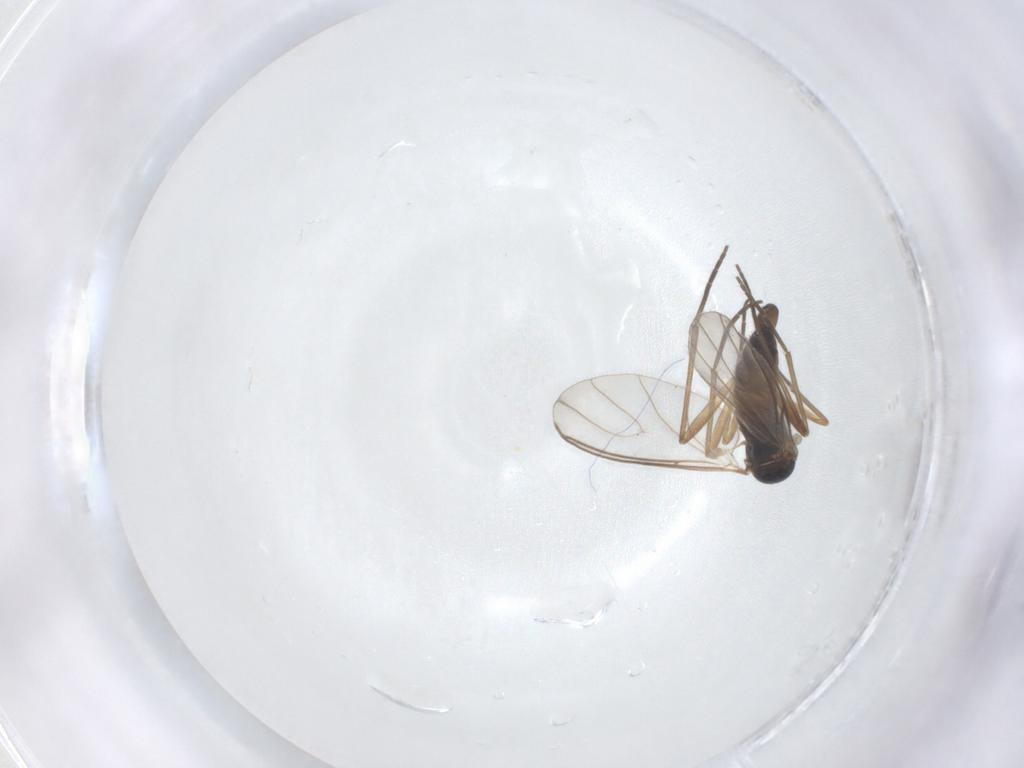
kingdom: Animalia
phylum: Arthropoda
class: Insecta
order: Diptera
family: Sciaridae
